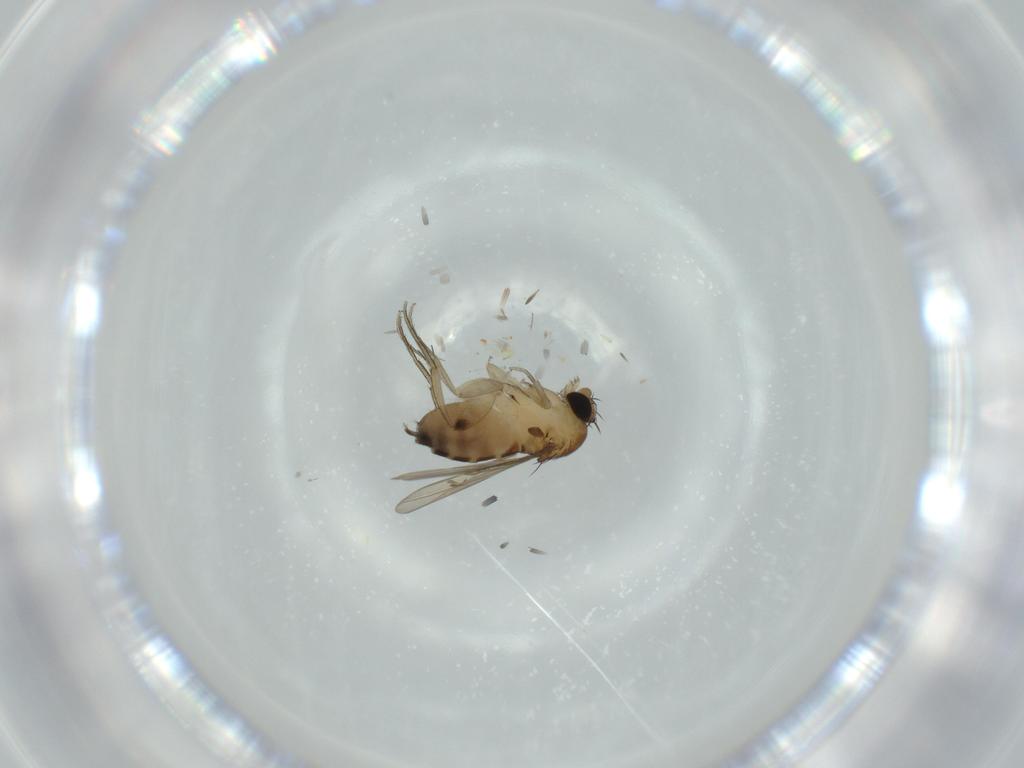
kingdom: Animalia
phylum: Arthropoda
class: Insecta
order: Diptera
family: Phoridae
